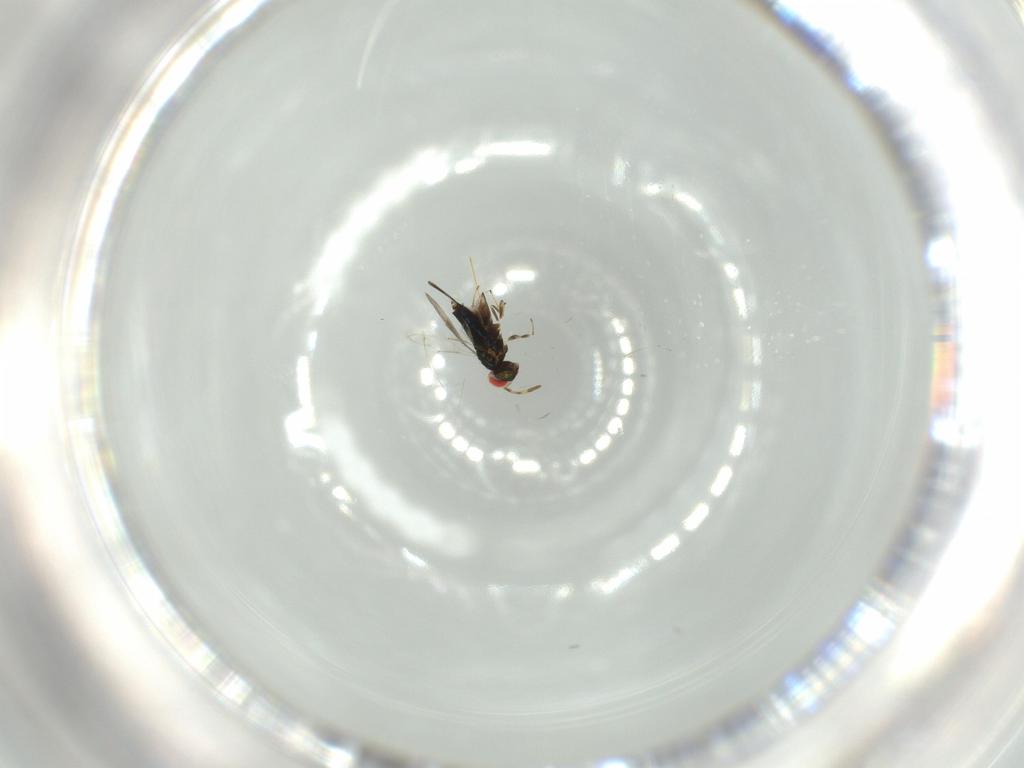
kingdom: Animalia
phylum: Arthropoda
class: Insecta
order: Hymenoptera
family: Azotidae
